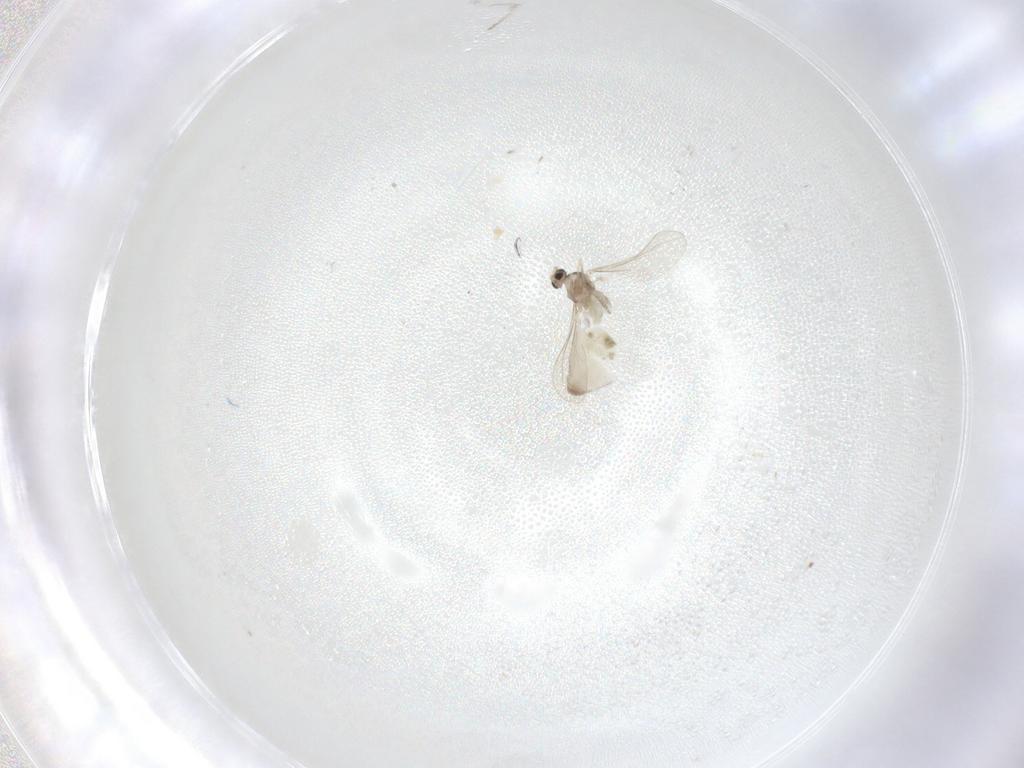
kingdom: Animalia
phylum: Arthropoda
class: Insecta
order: Diptera
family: Cecidomyiidae
